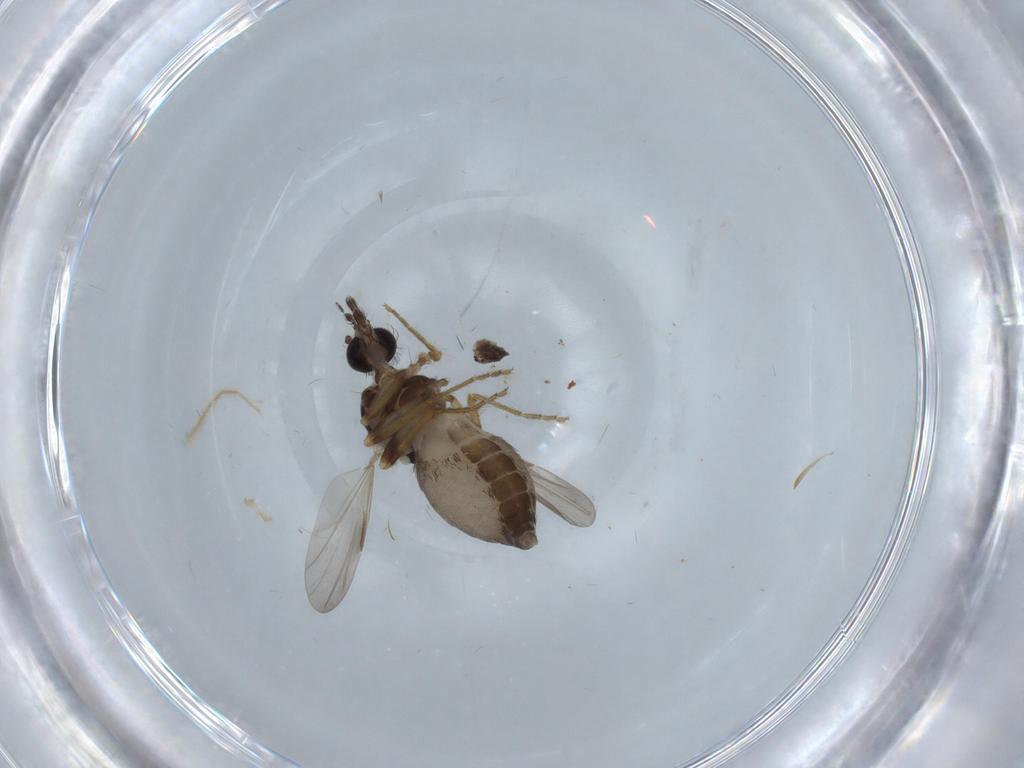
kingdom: Animalia
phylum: Arthropoda
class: Insecta
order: Diptera
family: Ceratopogonidae
